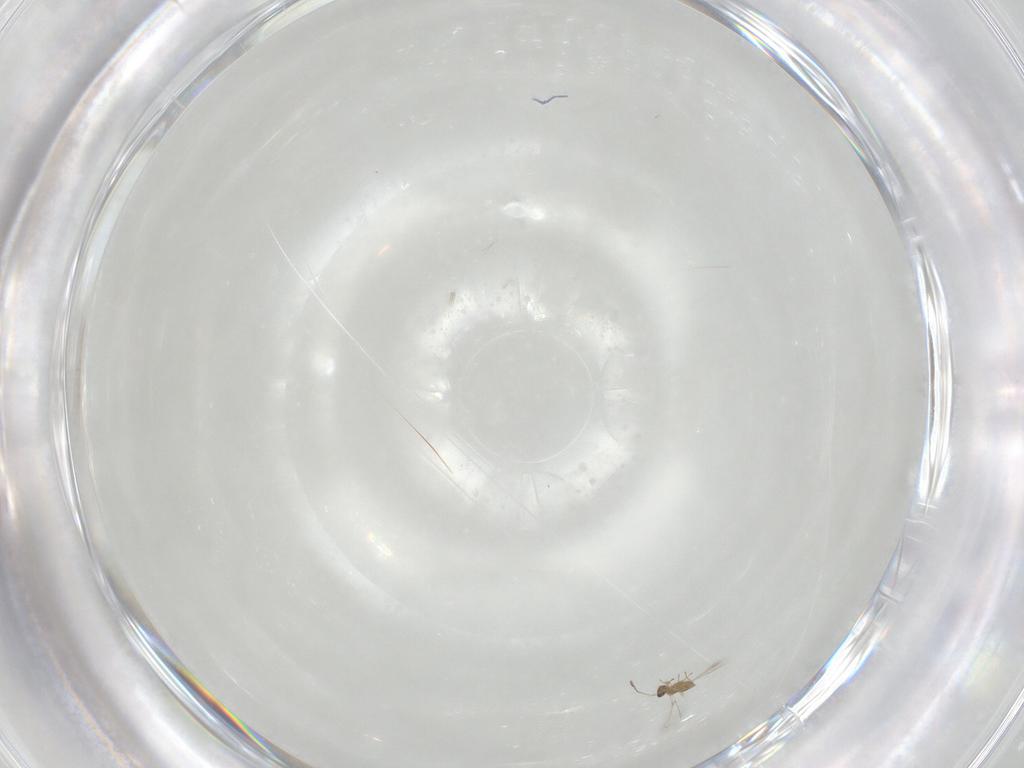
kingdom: Animalia
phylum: Arthropoda
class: Insecta
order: Hymenoptera
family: Mymaridae
